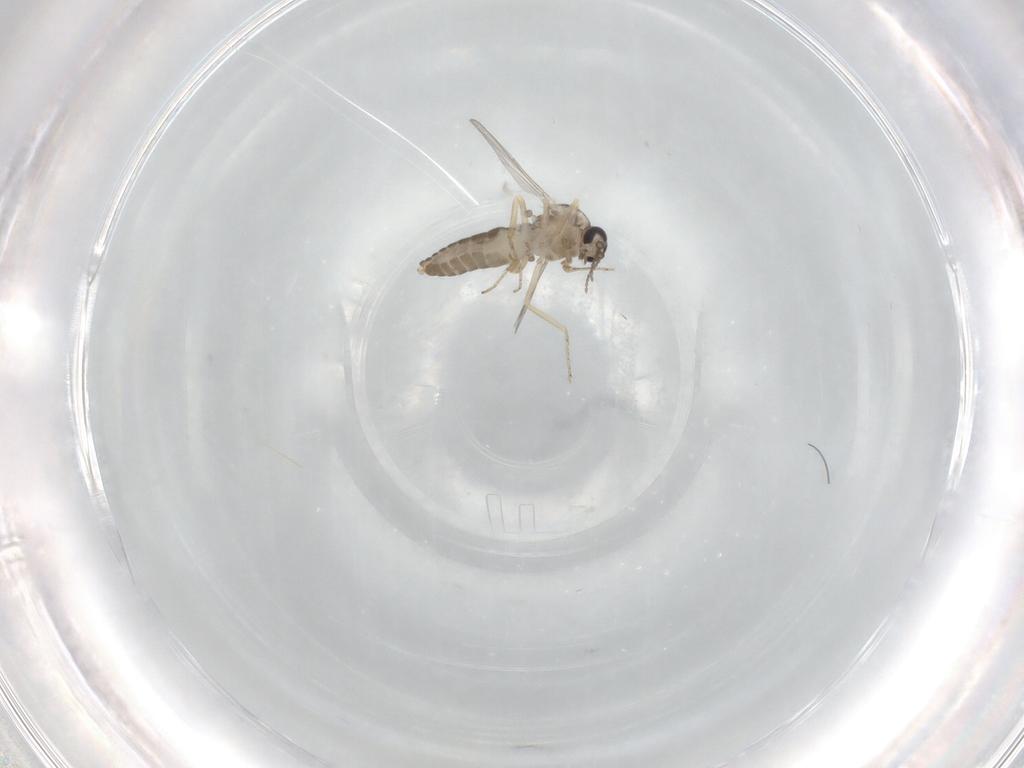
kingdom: Animalia
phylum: Arthropoda
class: Insecta
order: Diptera
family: Ceratopogonidae
